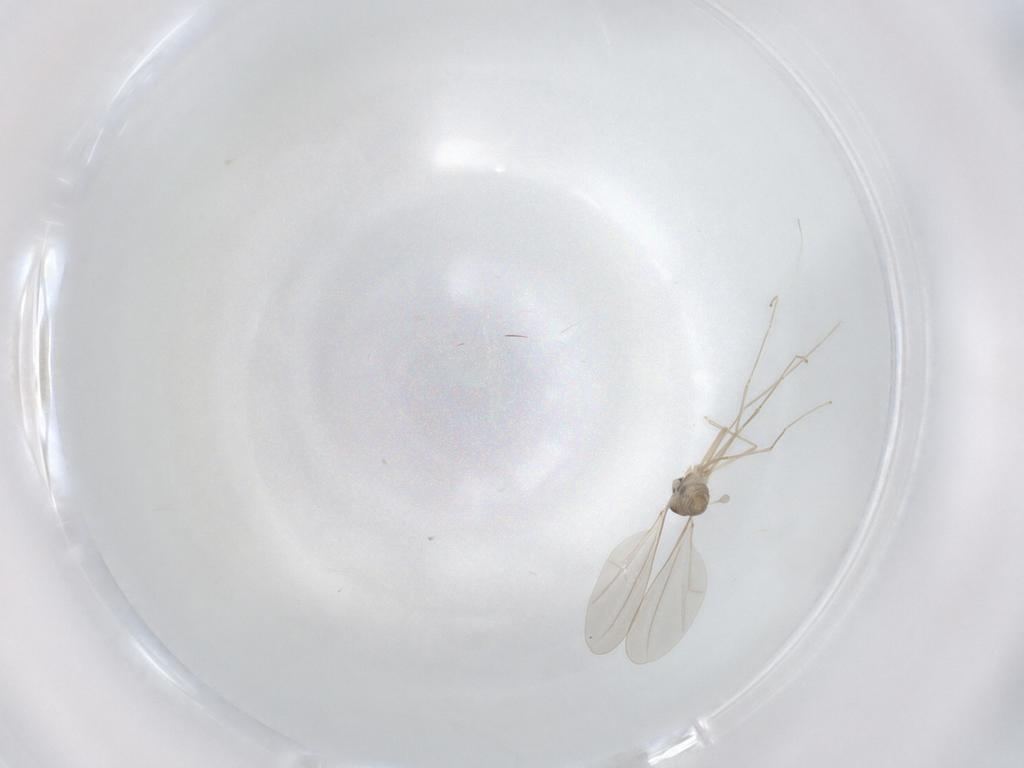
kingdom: Animalia
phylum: Arthropoda
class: Insecta
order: Diptera
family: Cecidomyiidae
